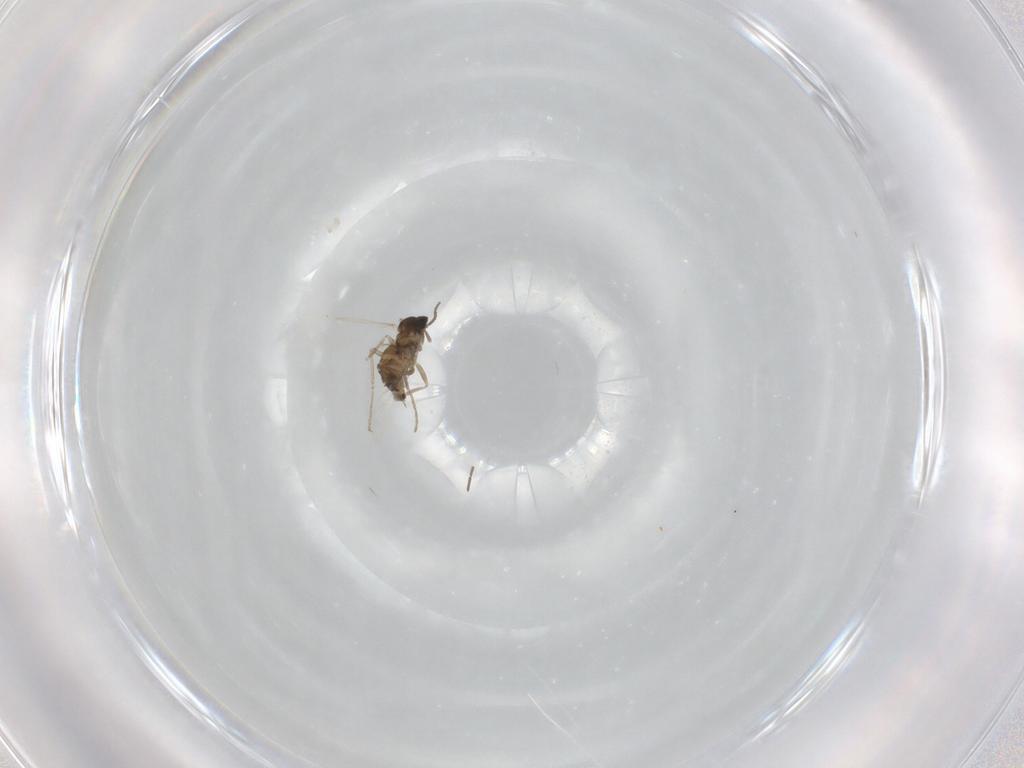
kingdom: Animalia
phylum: Arthropoda
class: Insecta
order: Diptera
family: Cecidomyiidae
